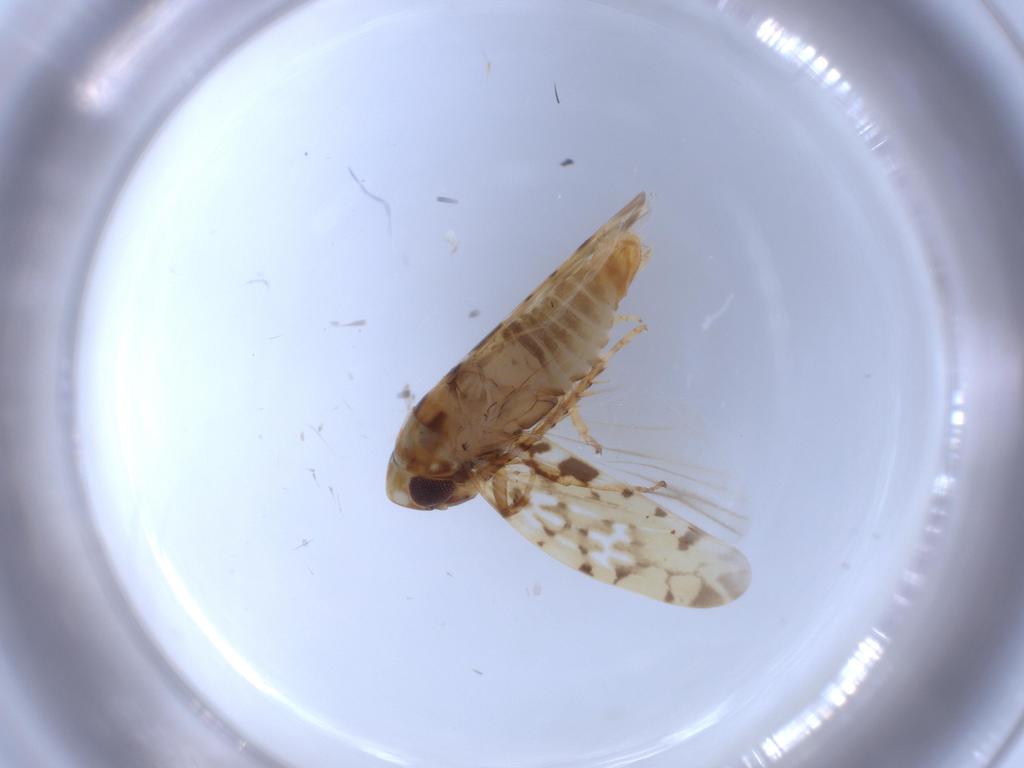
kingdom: Animalia
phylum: Arthropoda
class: Insecta
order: Hemiptera
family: Cicadellidae
